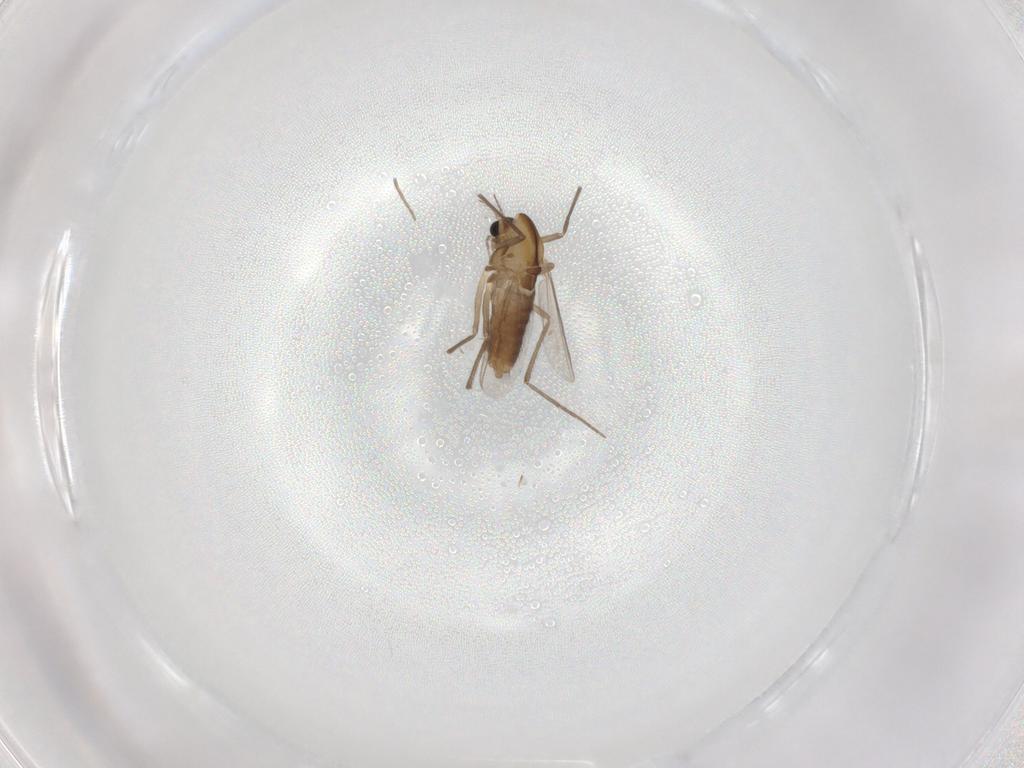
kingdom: Animalia
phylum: Arthropoda
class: Insecta
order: Diptera
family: Chironomidae
